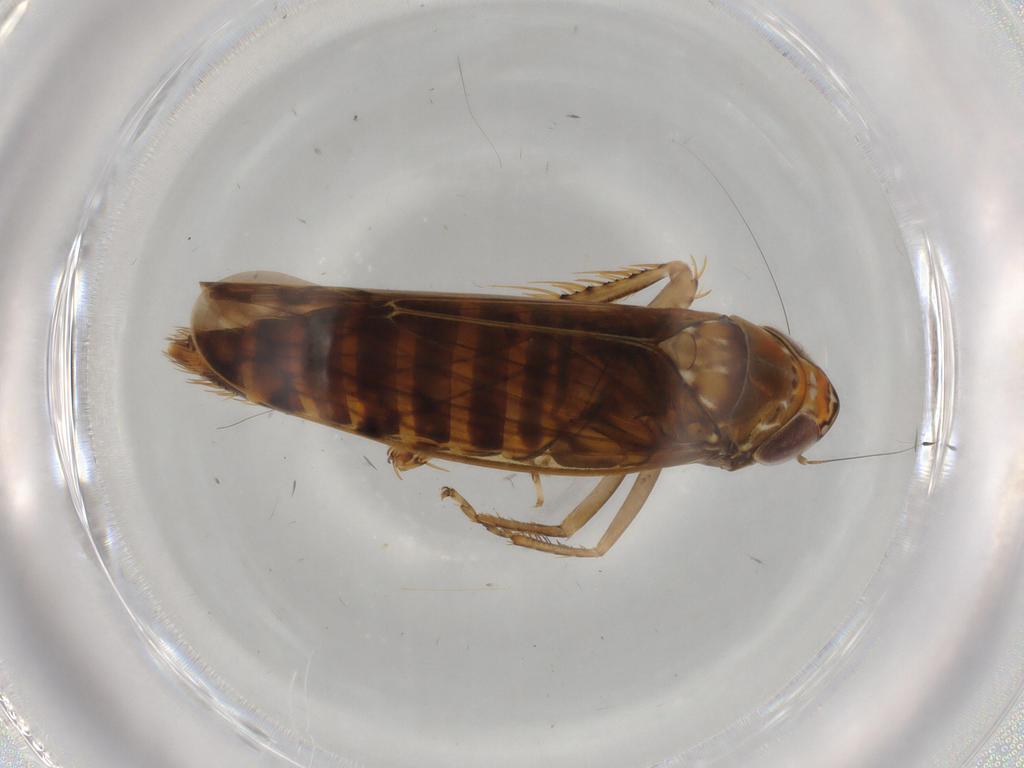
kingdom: Animalia
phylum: Arthropoda
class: Insecta
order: Hemiptera
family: Cicadellidae
